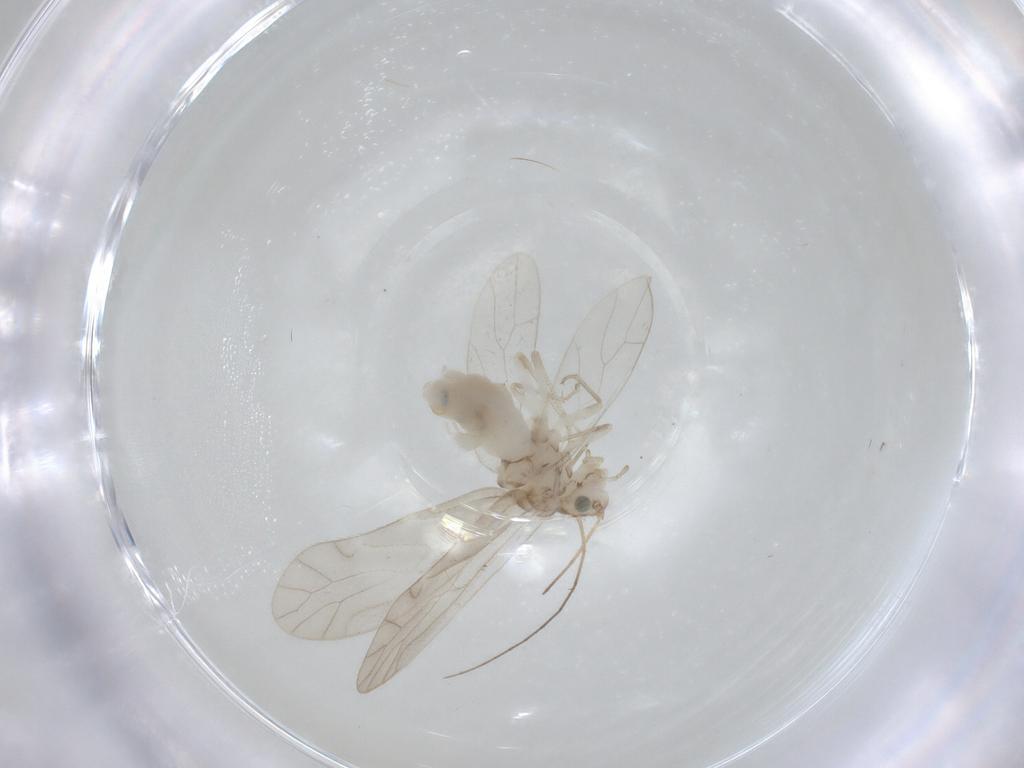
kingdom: Animalia
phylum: Arthropoda
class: Insecta
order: Psocodea
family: Caeciliusidae
